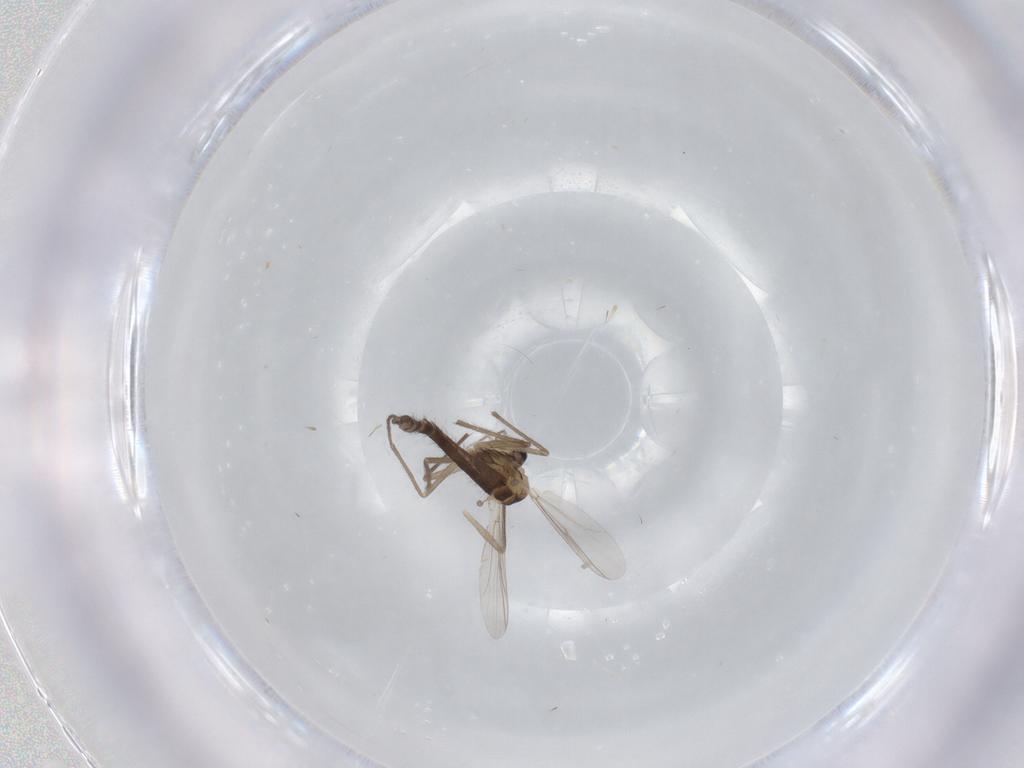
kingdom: Animalia
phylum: Arthropoda
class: Insecta
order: Diptera
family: Chironomidae
